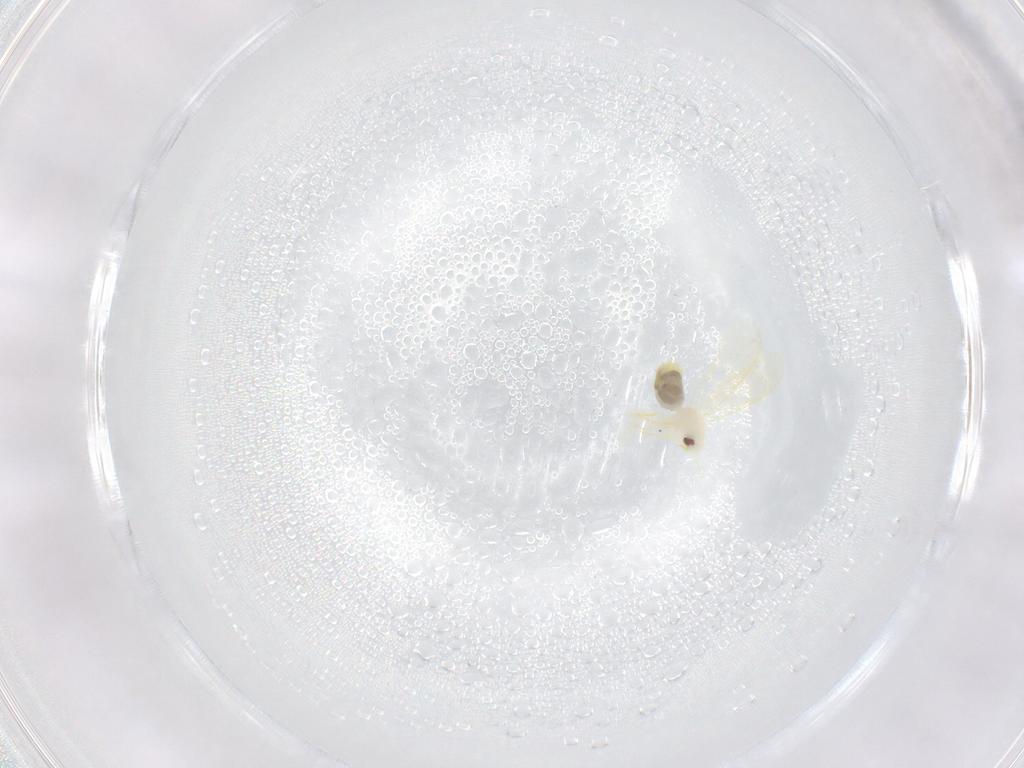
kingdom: Animalia
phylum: Arthropoda
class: Insecta
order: Hemiptera
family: Aleyrodidae
